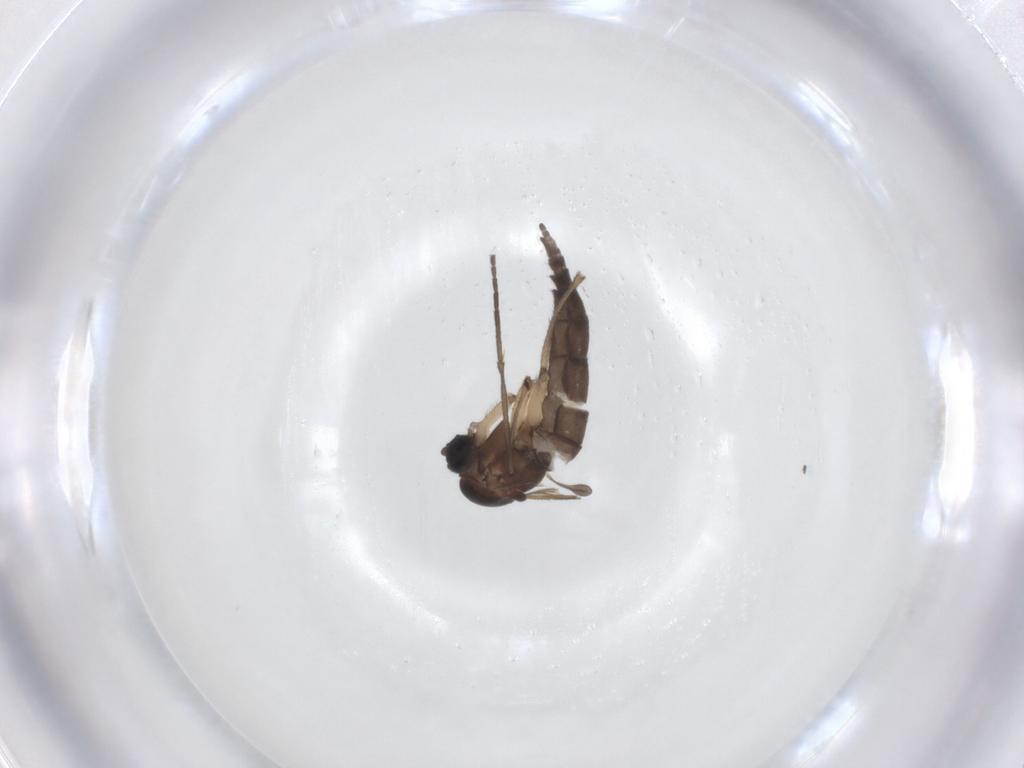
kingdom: Animalia
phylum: Arthropoda
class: Insecta
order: Diptera
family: Sciaridae
